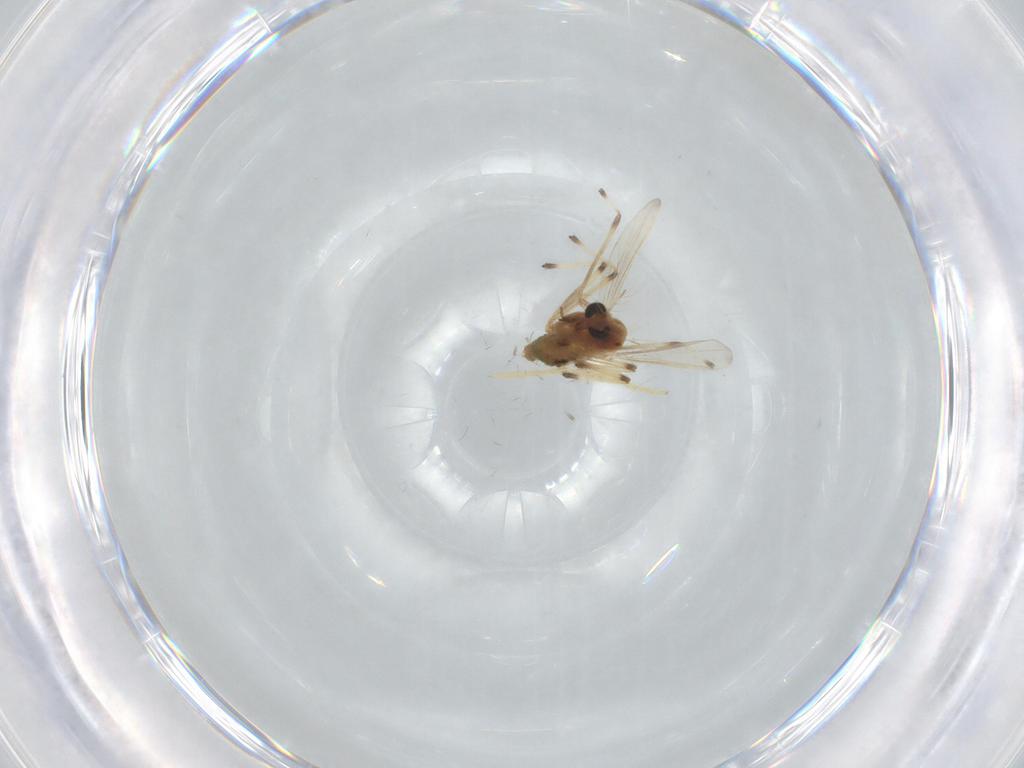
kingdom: Animalia
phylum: Arthropoda
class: Insecta
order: Diptera
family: Chironomidae
